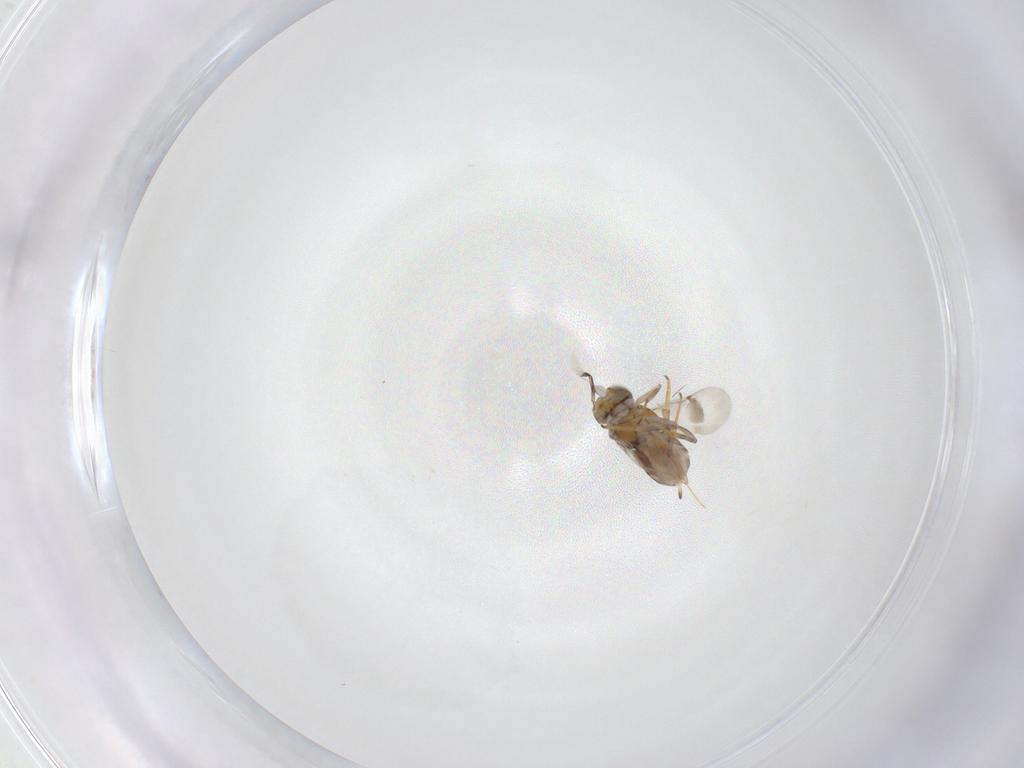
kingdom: Animalia
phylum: Arthropoda
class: Insecta
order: Hymenoptera
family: Encyrtidae
